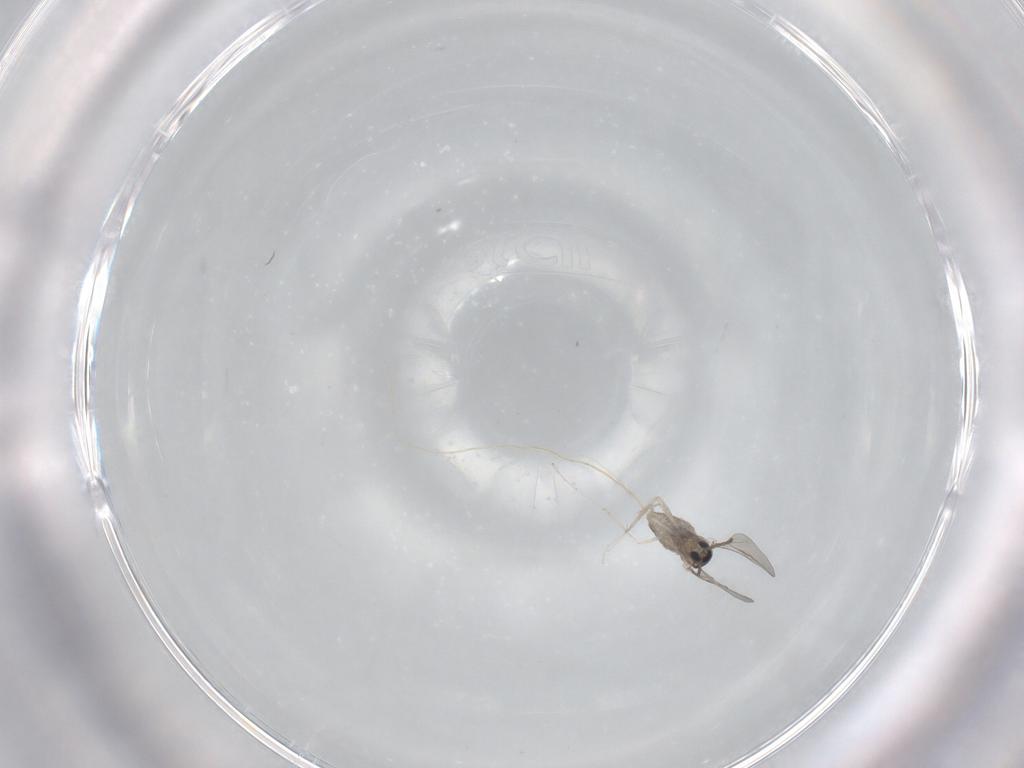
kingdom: Animalia
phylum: Arthropoda
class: Insecta
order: Diptera
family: Cecidomyiidae
